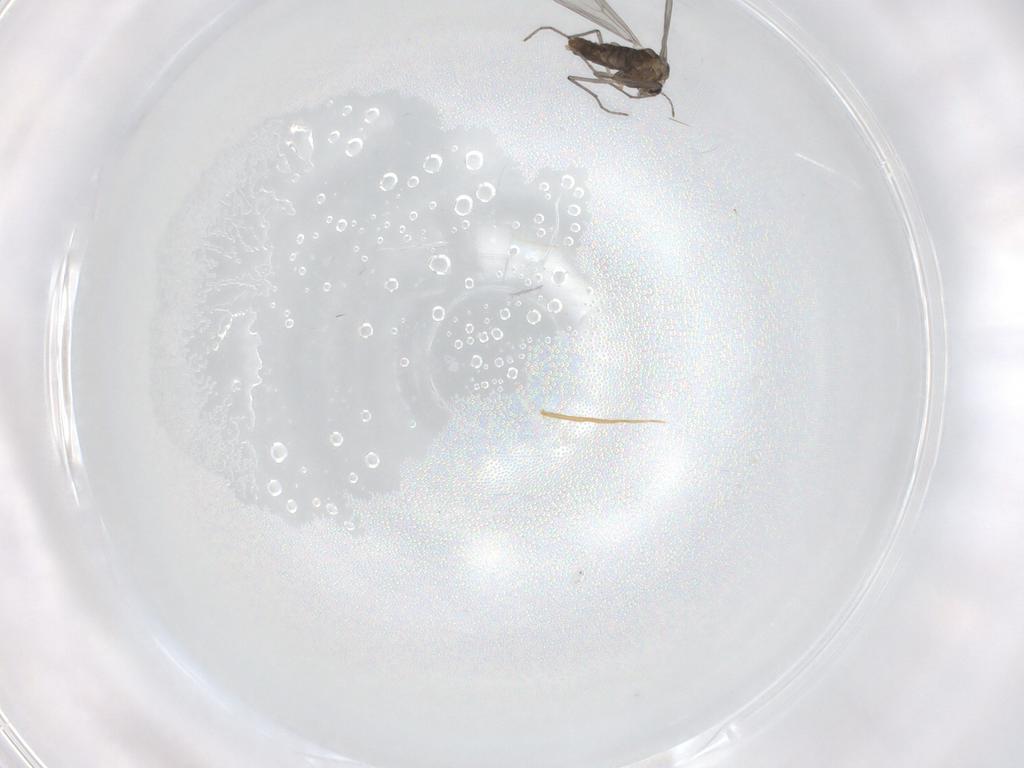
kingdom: Animalia
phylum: Arthropoda
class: Insecta
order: Diptera
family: Chironomidae
